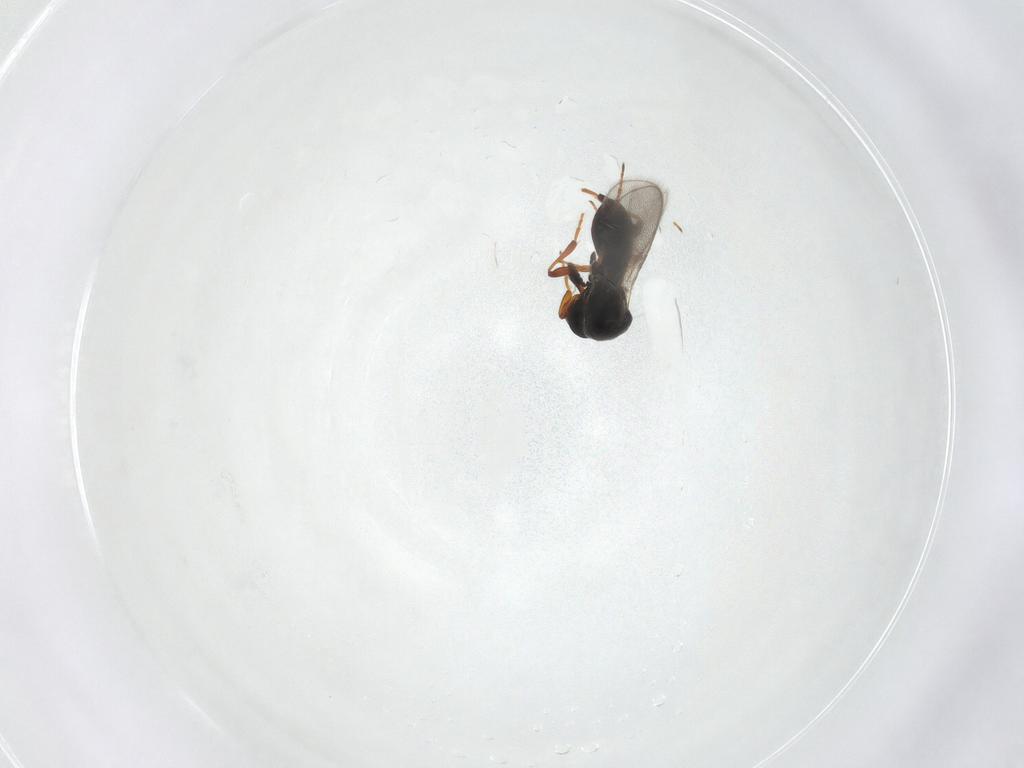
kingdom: Animalia
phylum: Arthropoda
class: Insecta
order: Hymenoptera
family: Platygastridae
